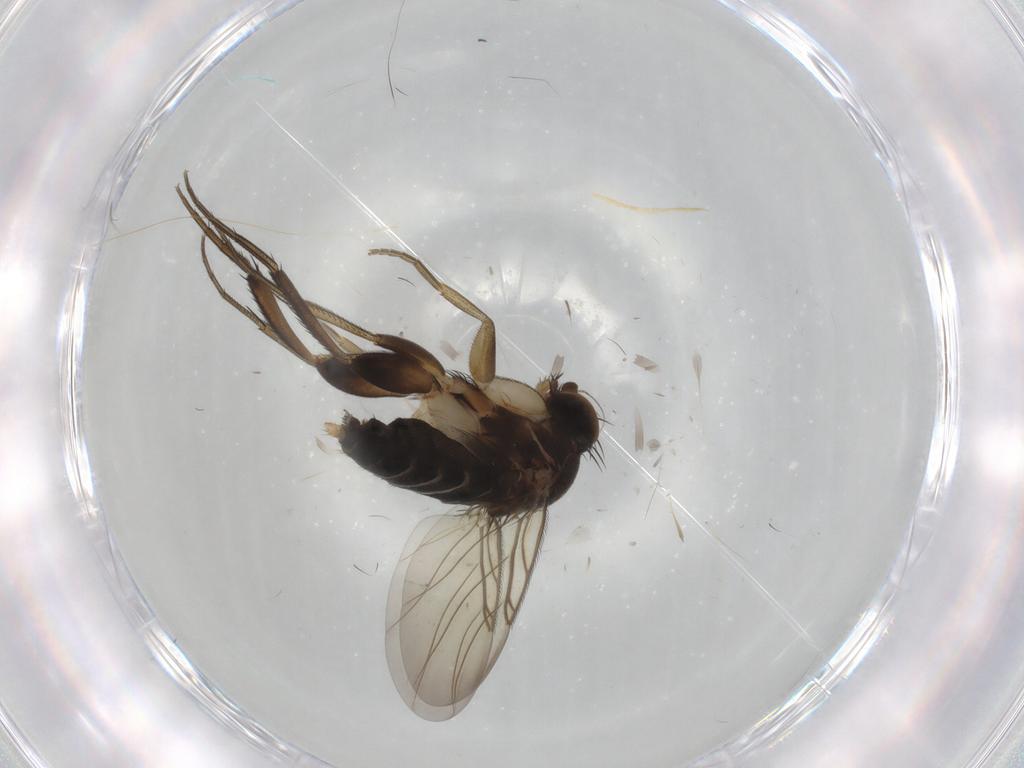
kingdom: Animalia
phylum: Arthropoda
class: Insecta
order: Diptera
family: Phoridae
